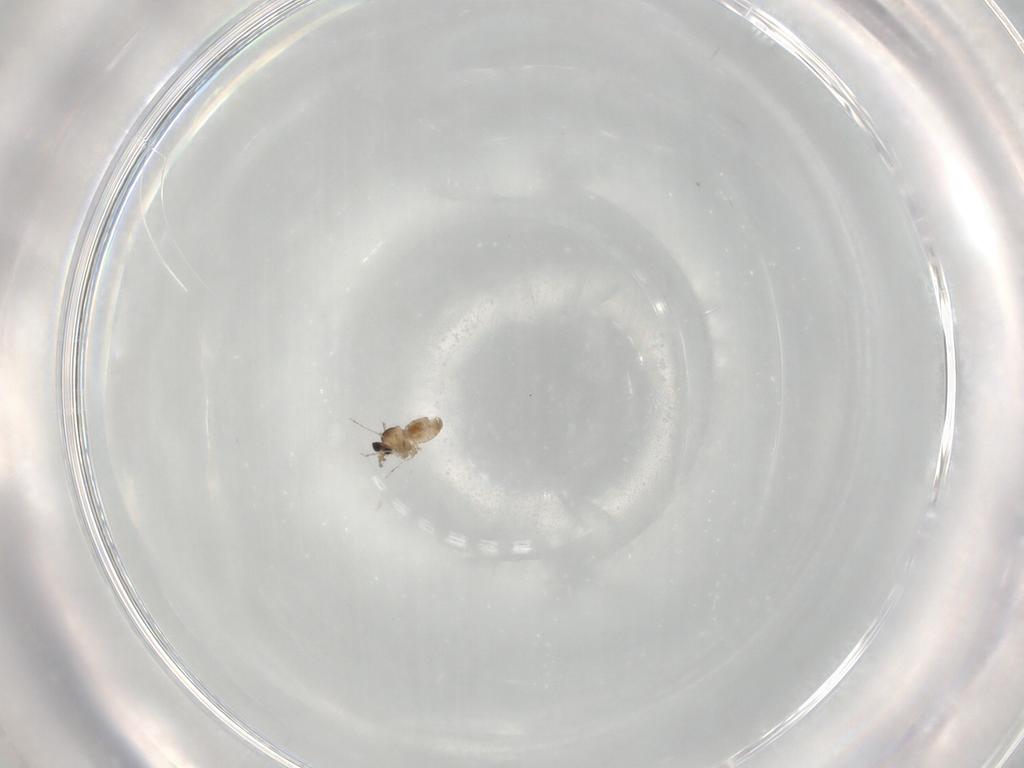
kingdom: Animalia
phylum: Arthropoda
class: Insecta
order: Diptera
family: Cecidomyiidae
